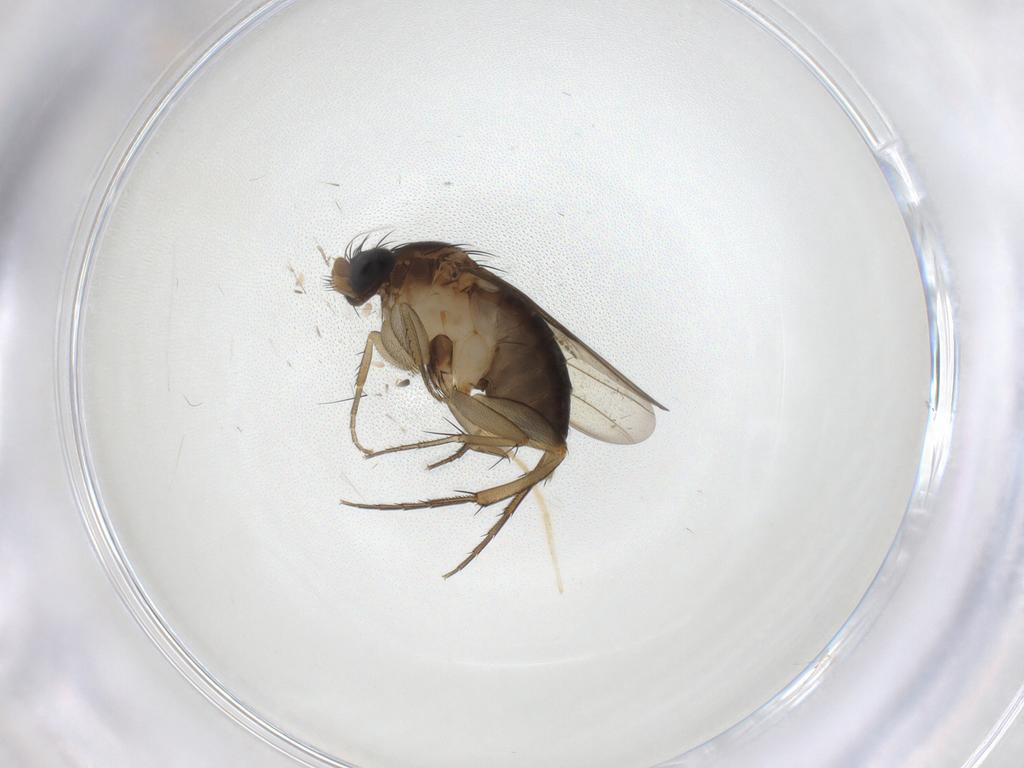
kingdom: Animalia
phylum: Arthropoda
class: Insecta
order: Diptera
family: Phoridae
